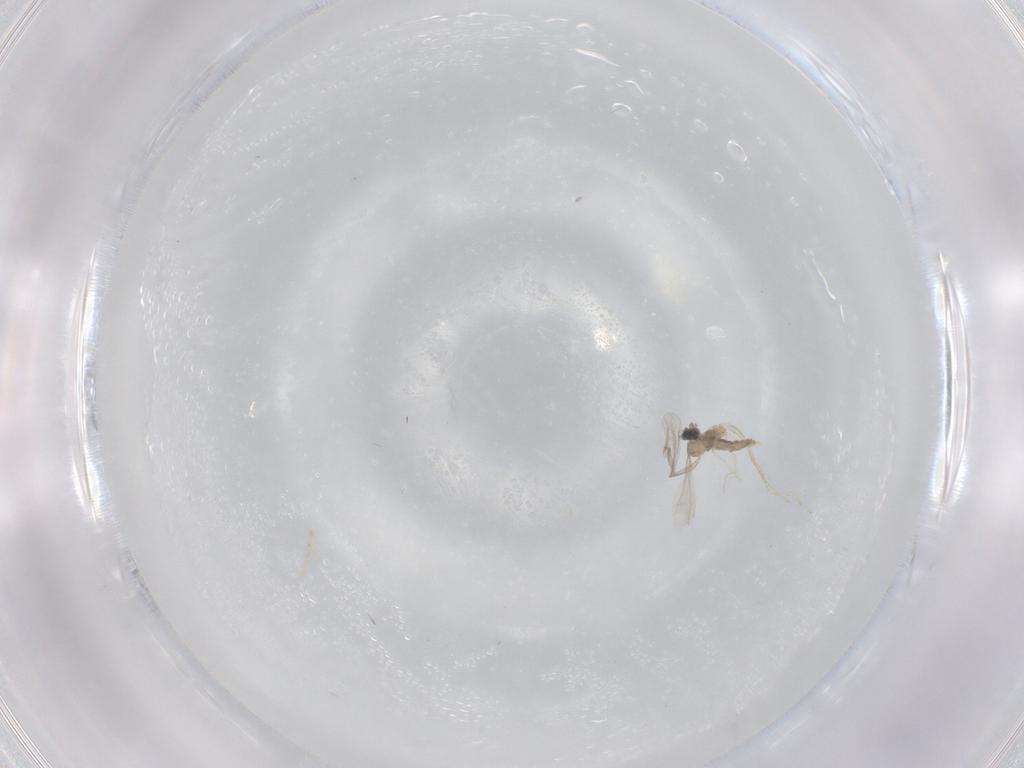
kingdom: Animalia
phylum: Arthropoda
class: Insecta
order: Diptera
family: Cecidomyiidae
